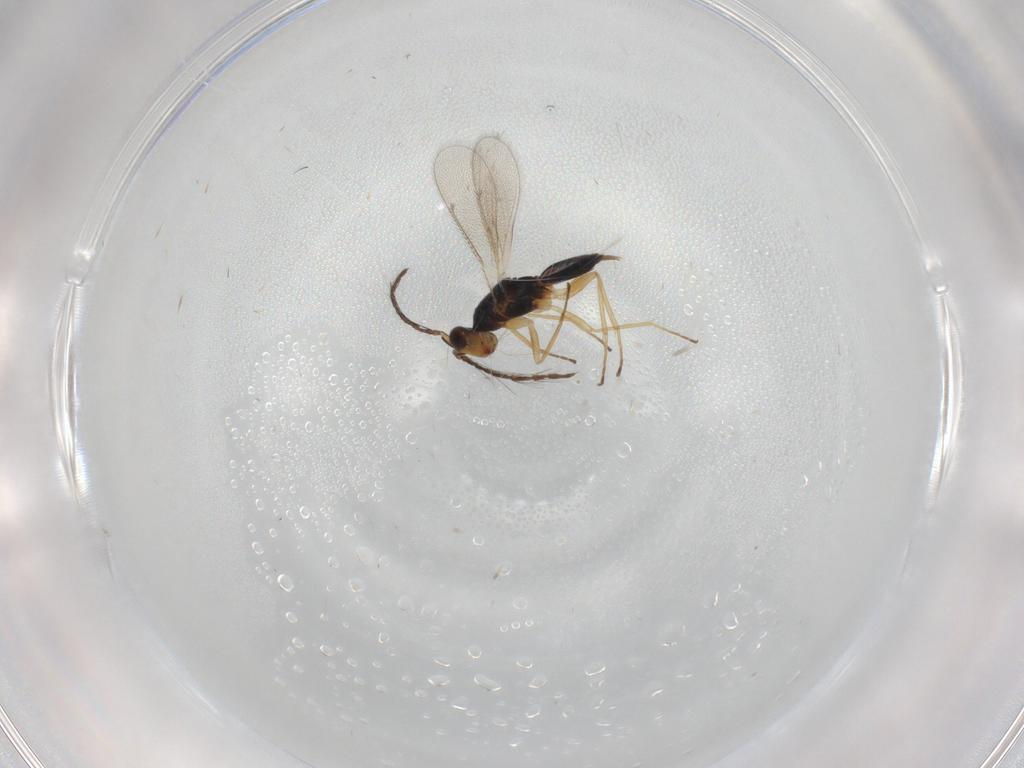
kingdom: Animalia
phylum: Arthropoda
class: Insecta
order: Hymenoptera
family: Eulophidae
